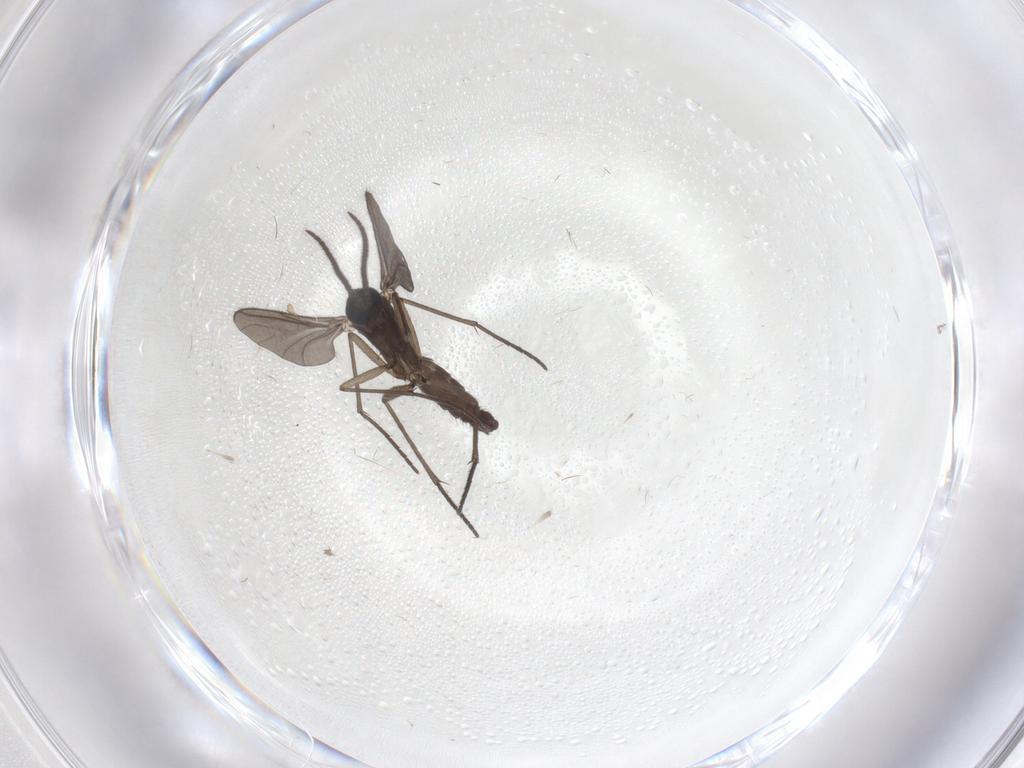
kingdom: Animalia
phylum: Arthropoda
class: Insecta
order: Diptera
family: Sciaridae
